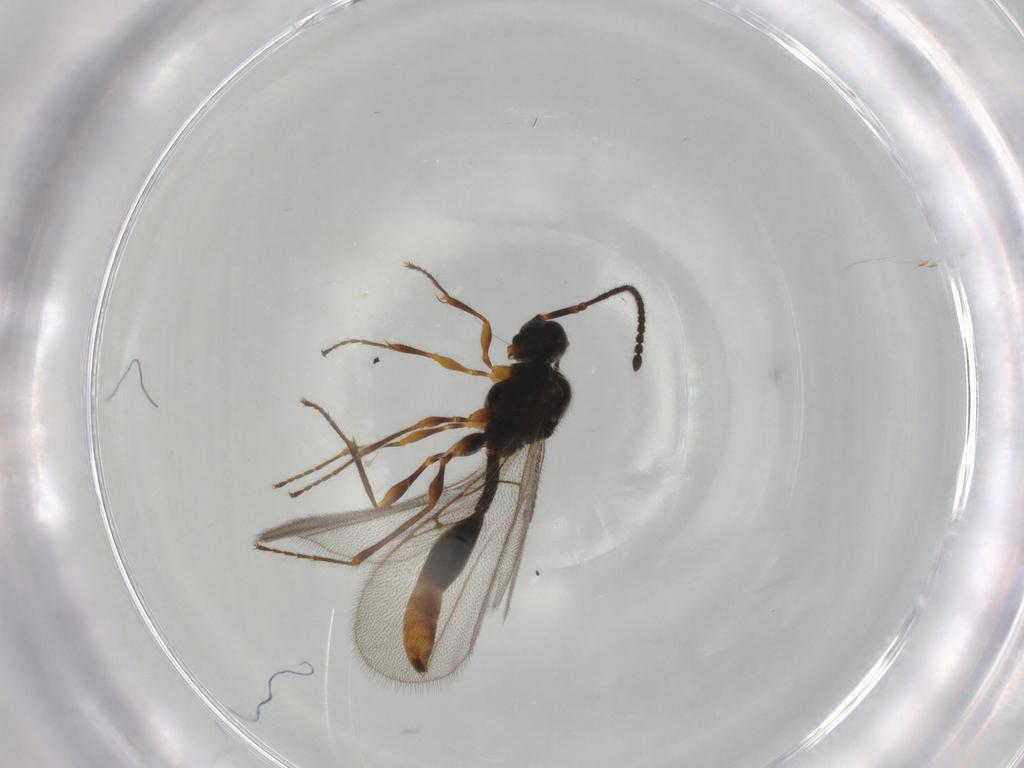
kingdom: Animalia
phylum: Arthropoda
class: Insecta
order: Hymenoptera
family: Diapriidae
